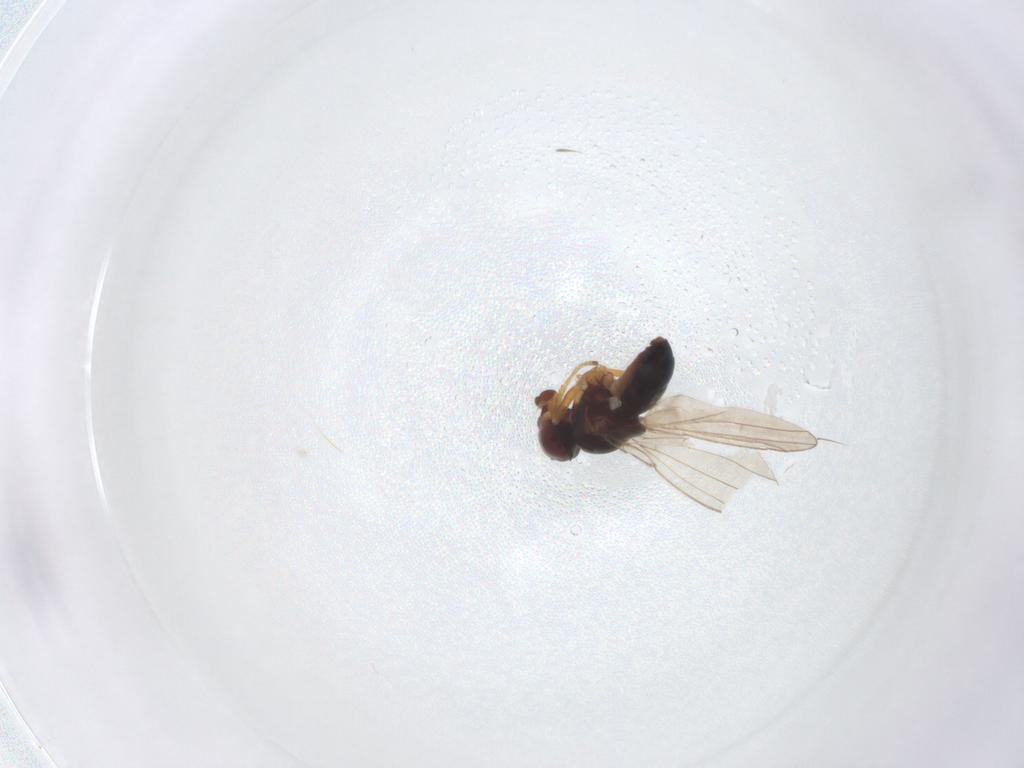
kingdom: Animalia
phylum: Arthropoda
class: Insecta
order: Diptera
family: Ephydridae
